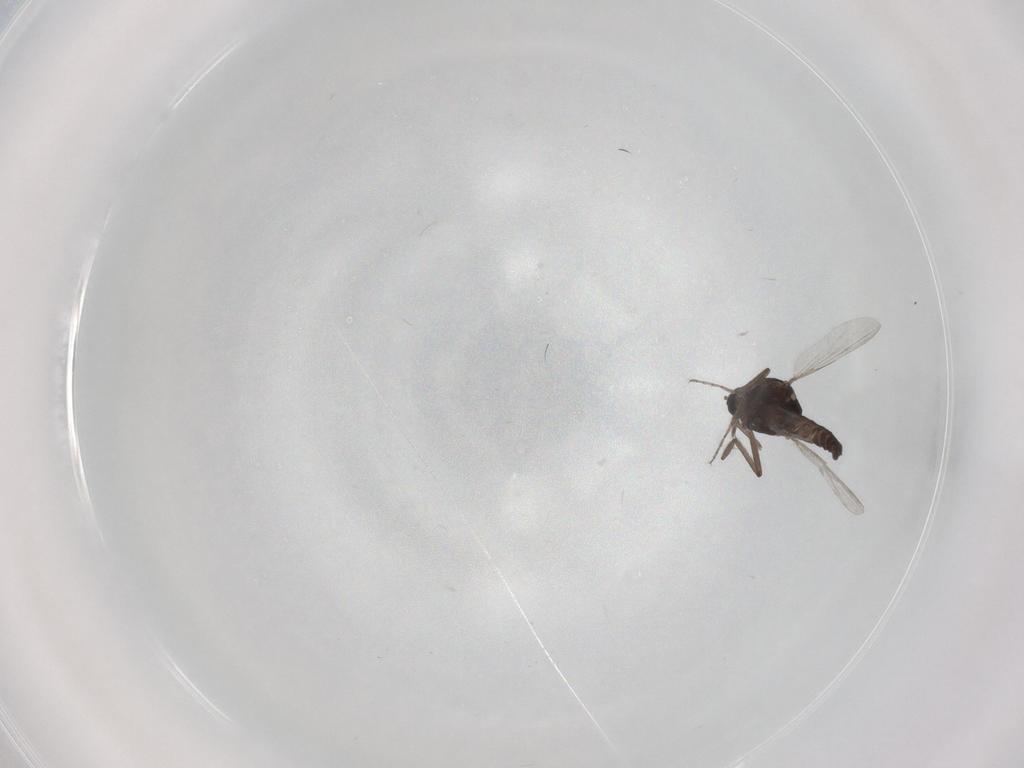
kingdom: Animalia
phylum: Arthropoda
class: Insecta
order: Diptera
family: Ceratopogonidae
